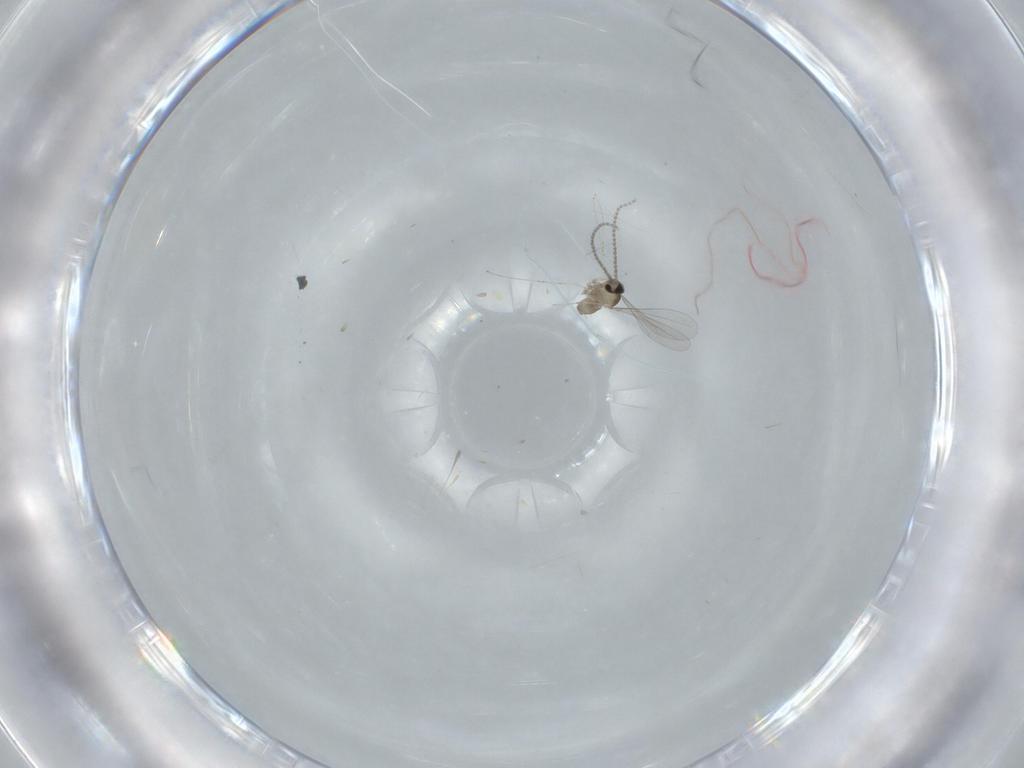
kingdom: Animalia
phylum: Arthropoda
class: Insecta
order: Diptera
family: Cecidomyiidae
